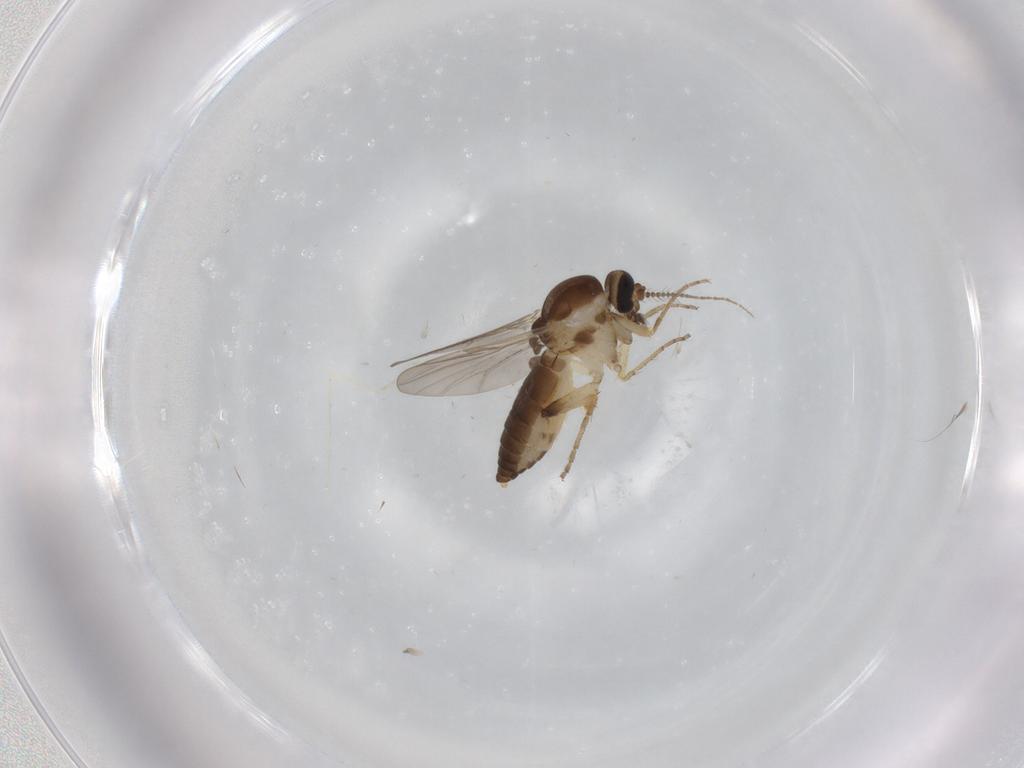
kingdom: Animalia
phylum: Arthropoda
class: Insecta
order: Diptera
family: Ceratopogonidae
